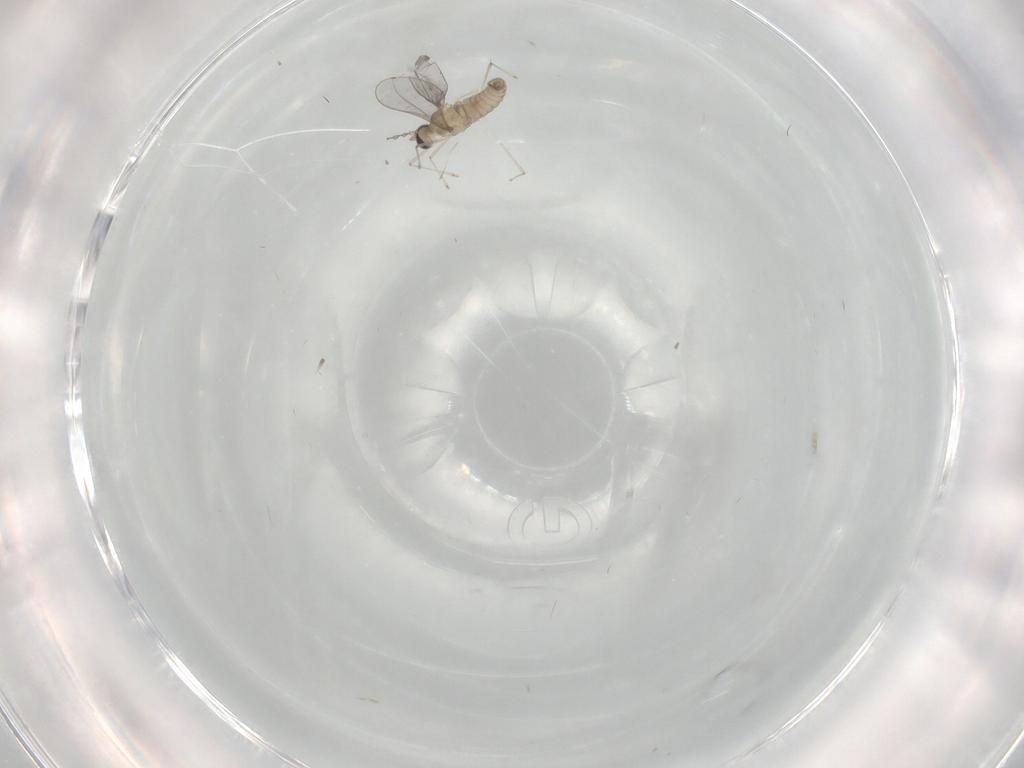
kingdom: Animalia
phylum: Arthropoda
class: Insecta
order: Diptera
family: Cecidomyiidae
